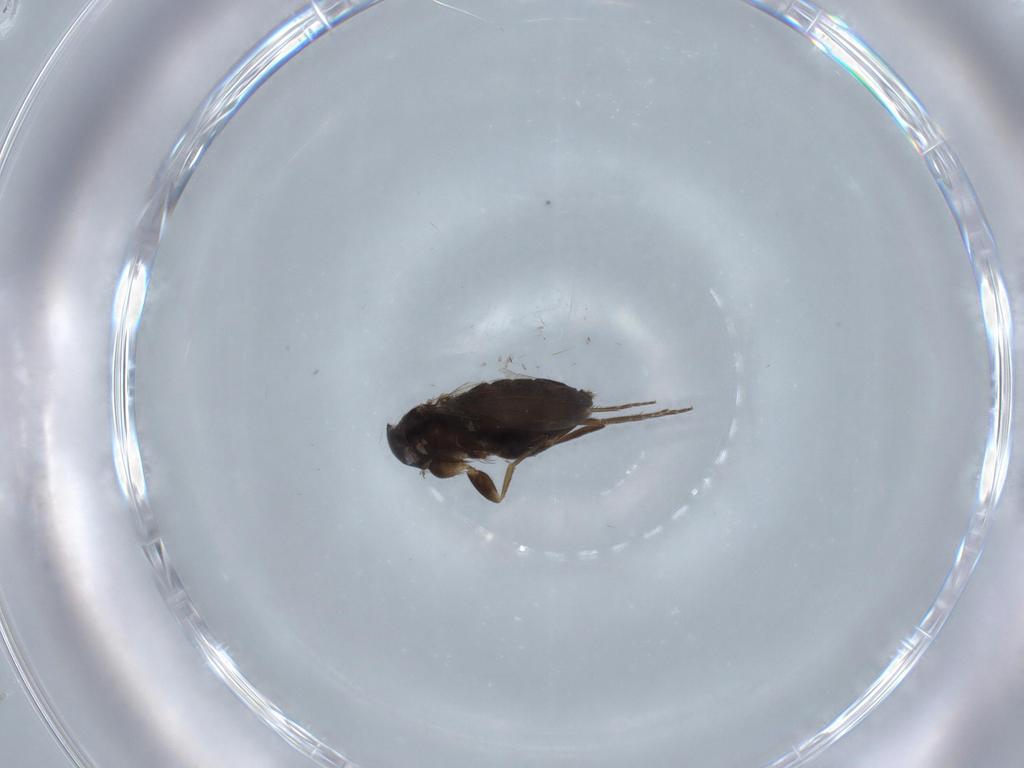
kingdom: Animalia
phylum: Arthropoda
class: Insecta
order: Diptera
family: Phoridae
